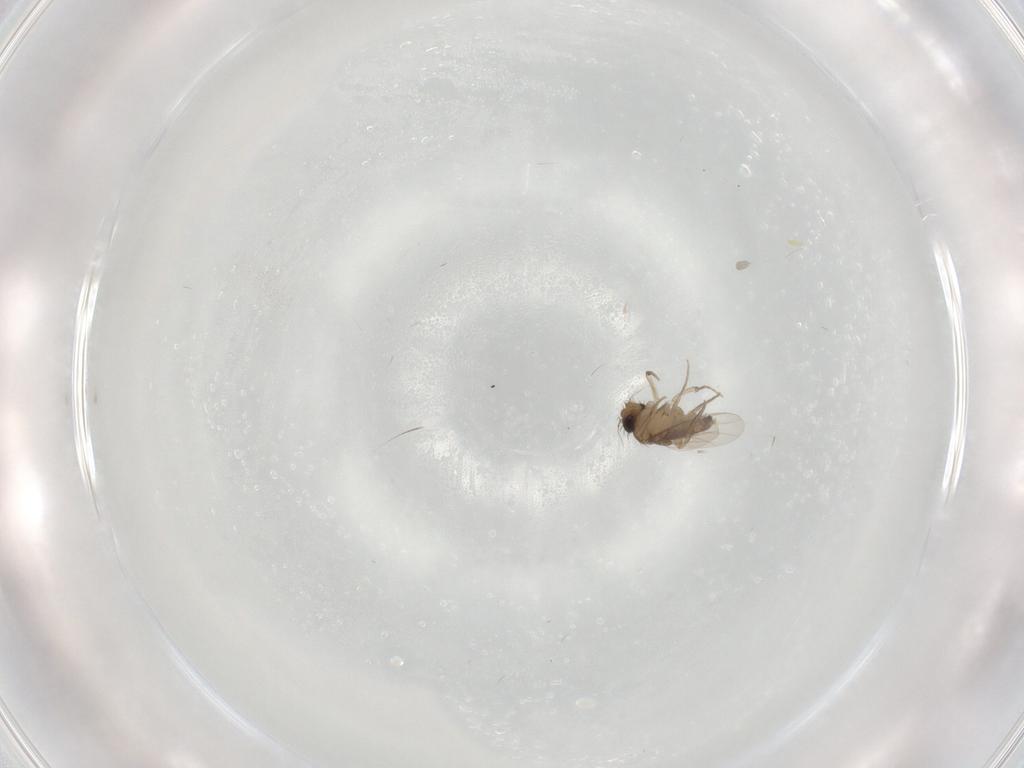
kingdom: Animalia
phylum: Arthropoda
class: Insecta
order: Diptera
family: Phoridae
